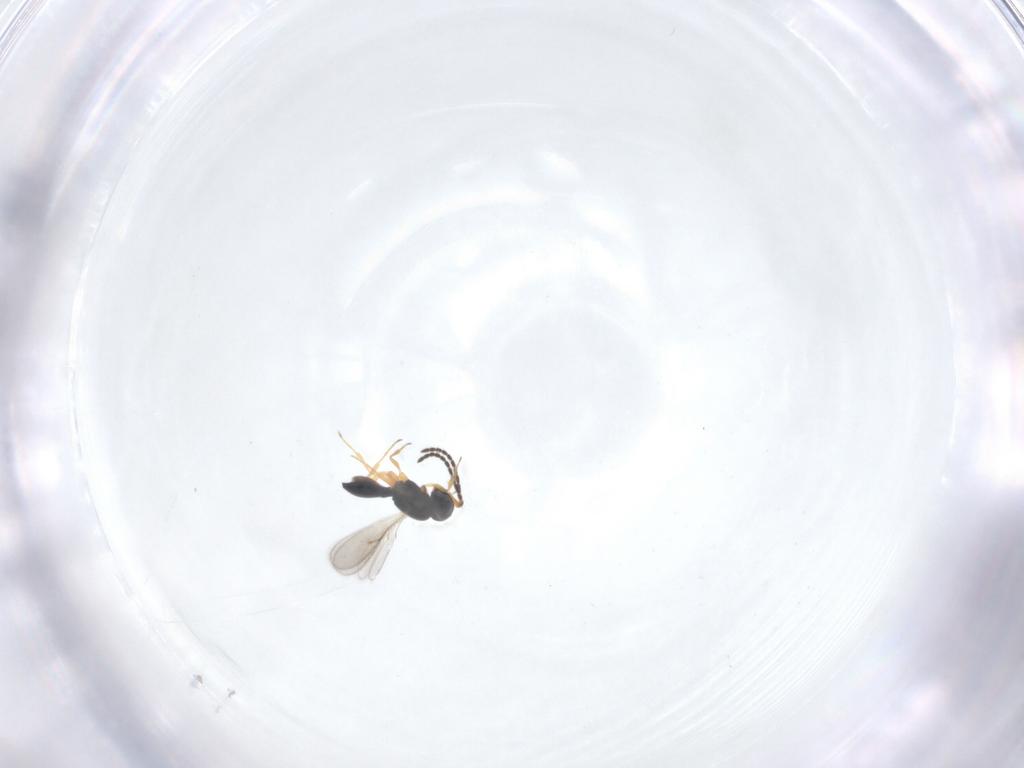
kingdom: Animalia
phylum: Arthropoda
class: Insecta
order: Hymenoptera
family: Scelionidae
